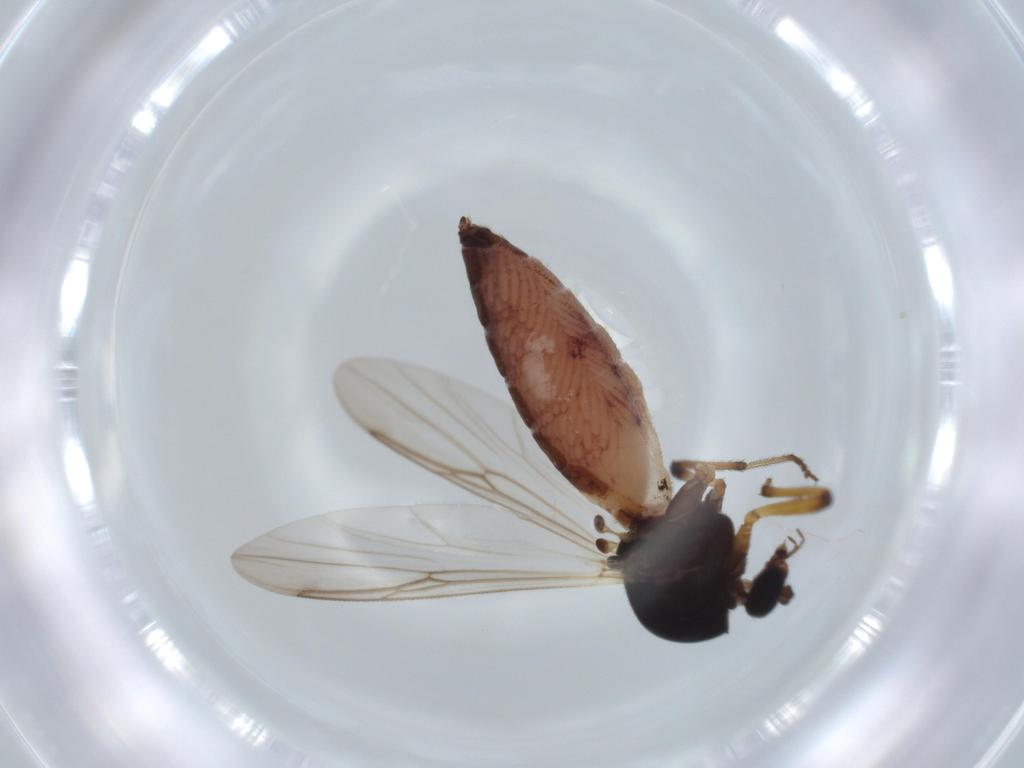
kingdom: Animalia
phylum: Arthropoda
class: Insecta
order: Diptera
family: Ceratopogonidae
